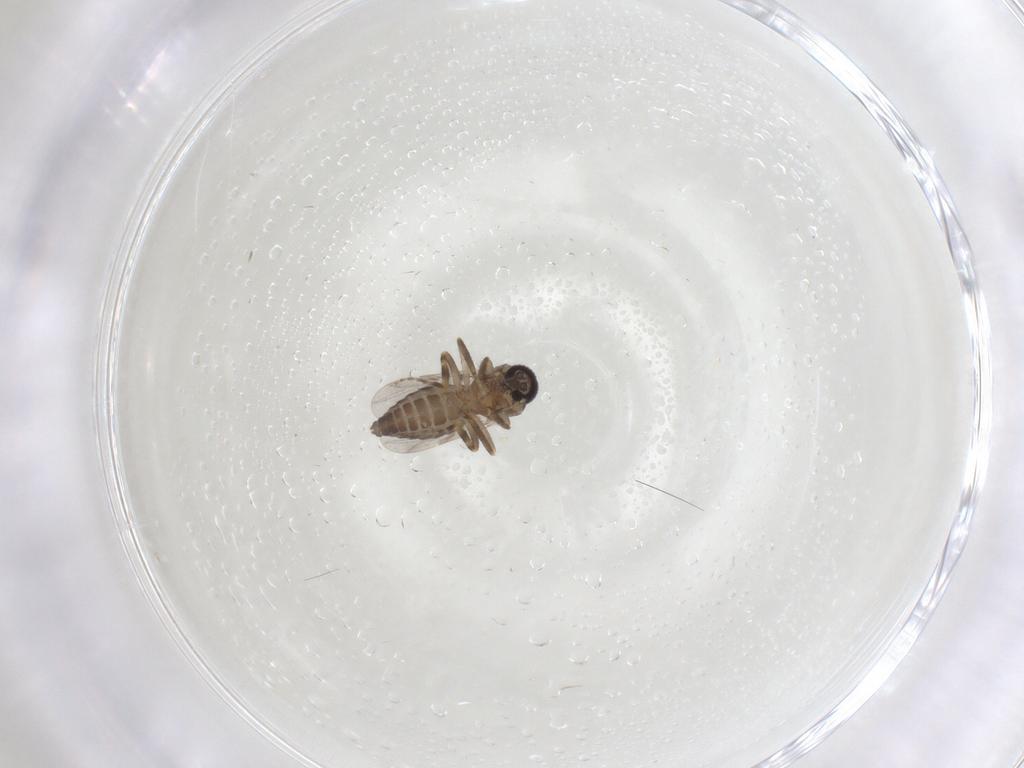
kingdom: Animalia
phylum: Arthropoda
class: Insecta
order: Diptera
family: Ceratopogonidae
